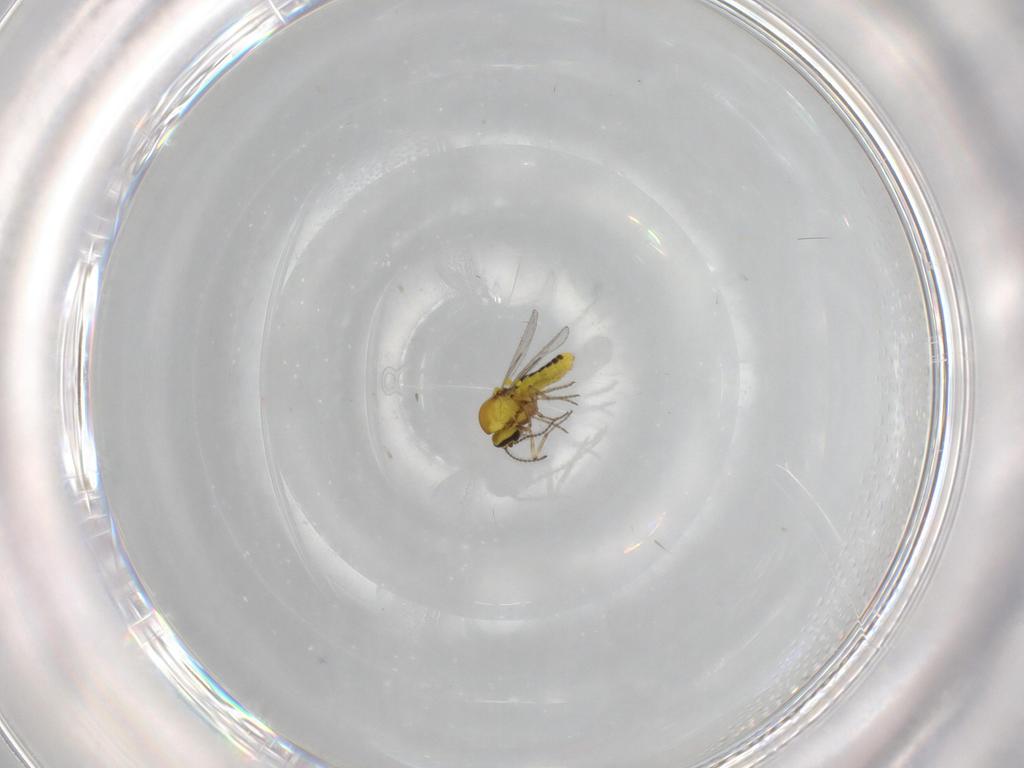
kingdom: Animalia
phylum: Arthropoda
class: Insecta
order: Diptera
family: Ceratopogonidae
